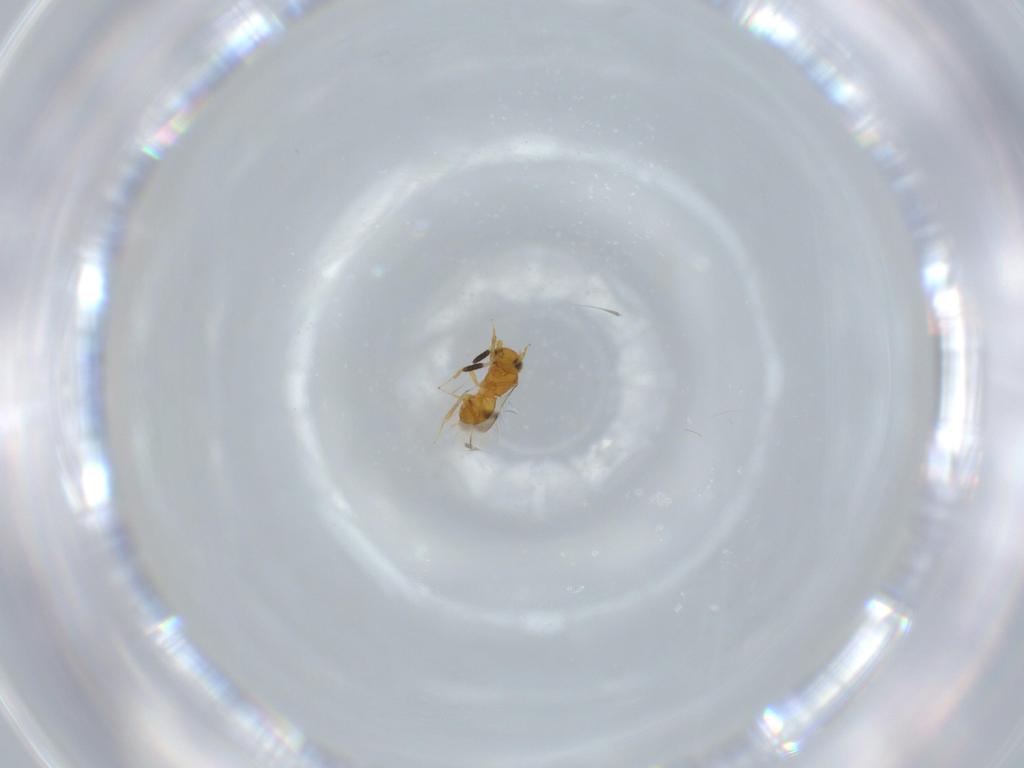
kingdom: Animalia
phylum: Arthropoda
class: Insecta
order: Hymenoptera
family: Scelionidae
